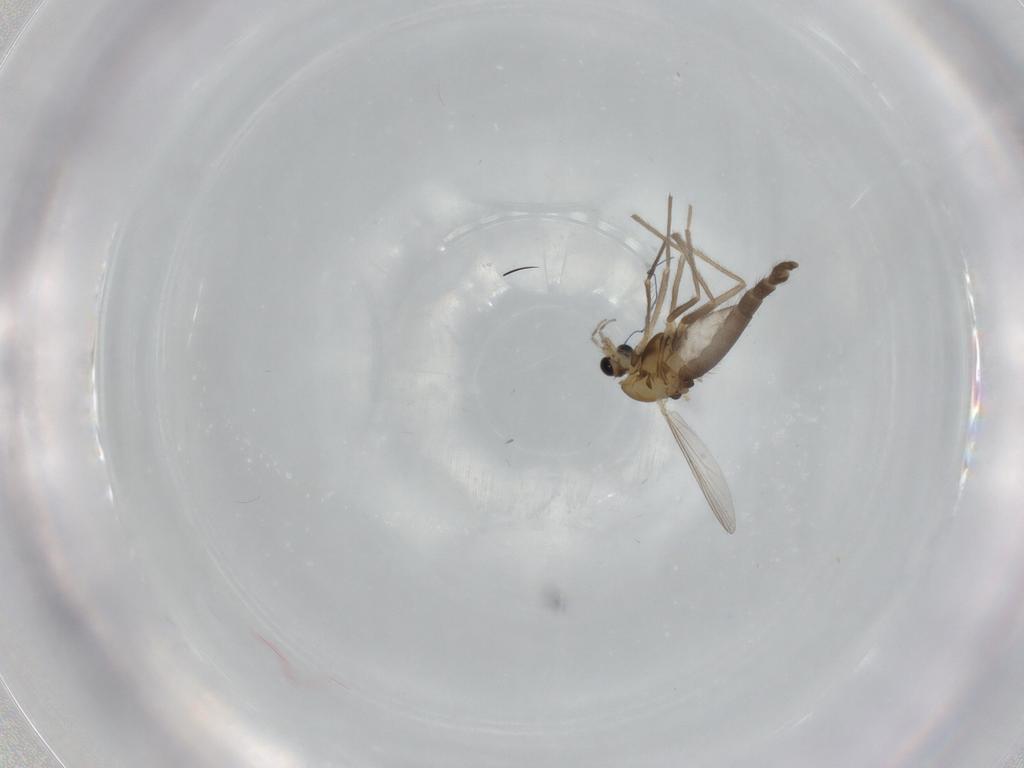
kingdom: Animalia
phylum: Arthropoda
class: Insecta
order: Diptera
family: Chironomidae
